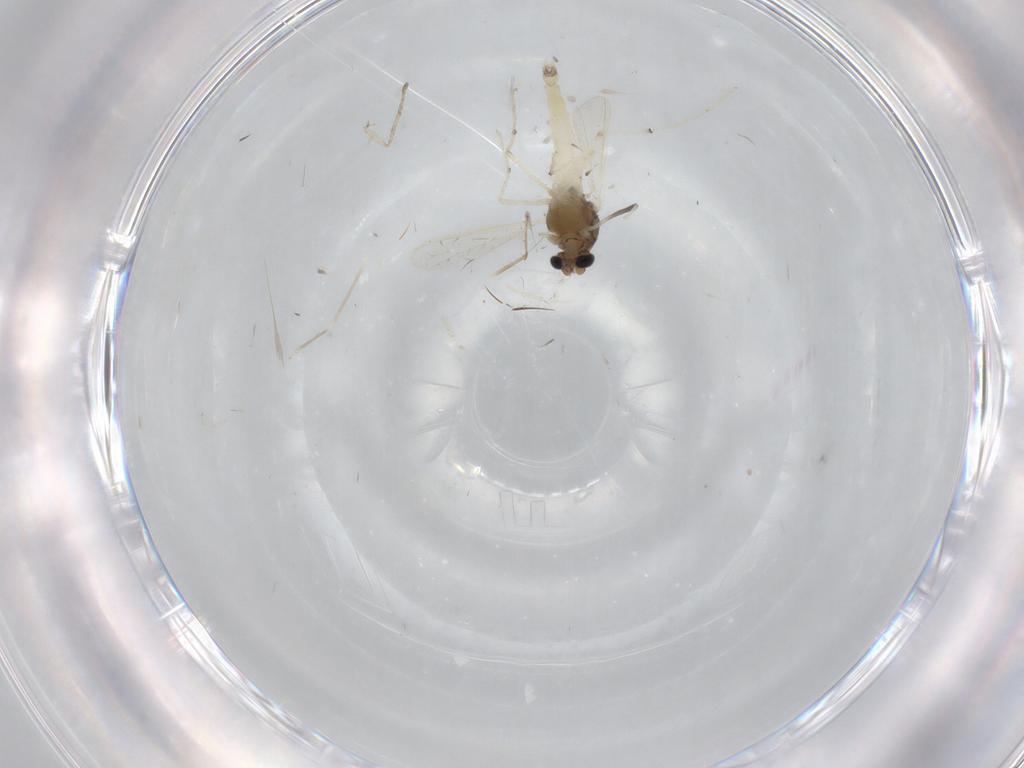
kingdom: Animalia
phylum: Arthropoda
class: Insecta
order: Diptera
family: Chironomidae
